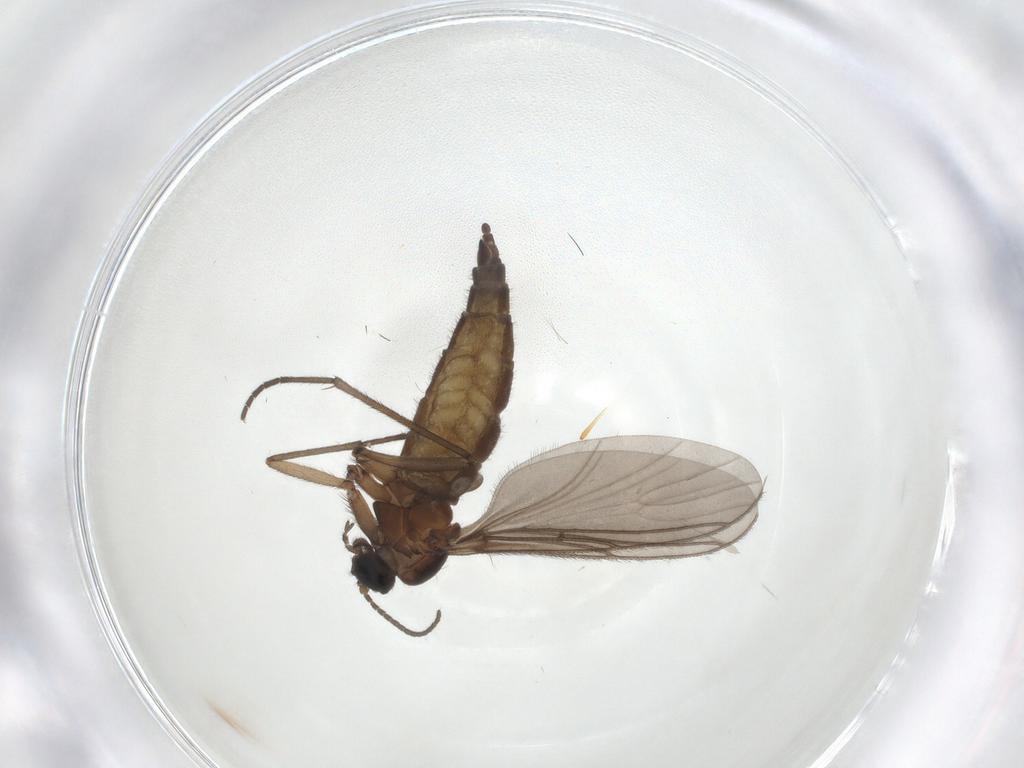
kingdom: Animalia
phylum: Arthropoda
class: Insecta
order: Diptera
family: Sciaridae
